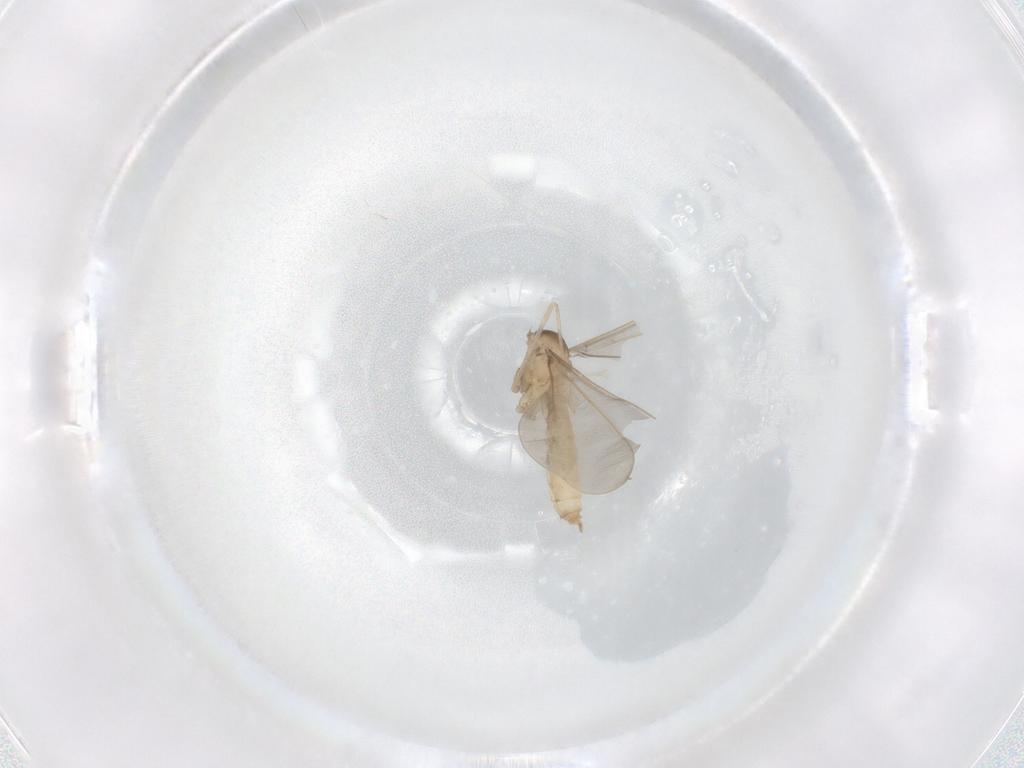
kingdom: Animalia
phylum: Arthropoda
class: Insecta
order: Diptera
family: Cecidomyiidae
